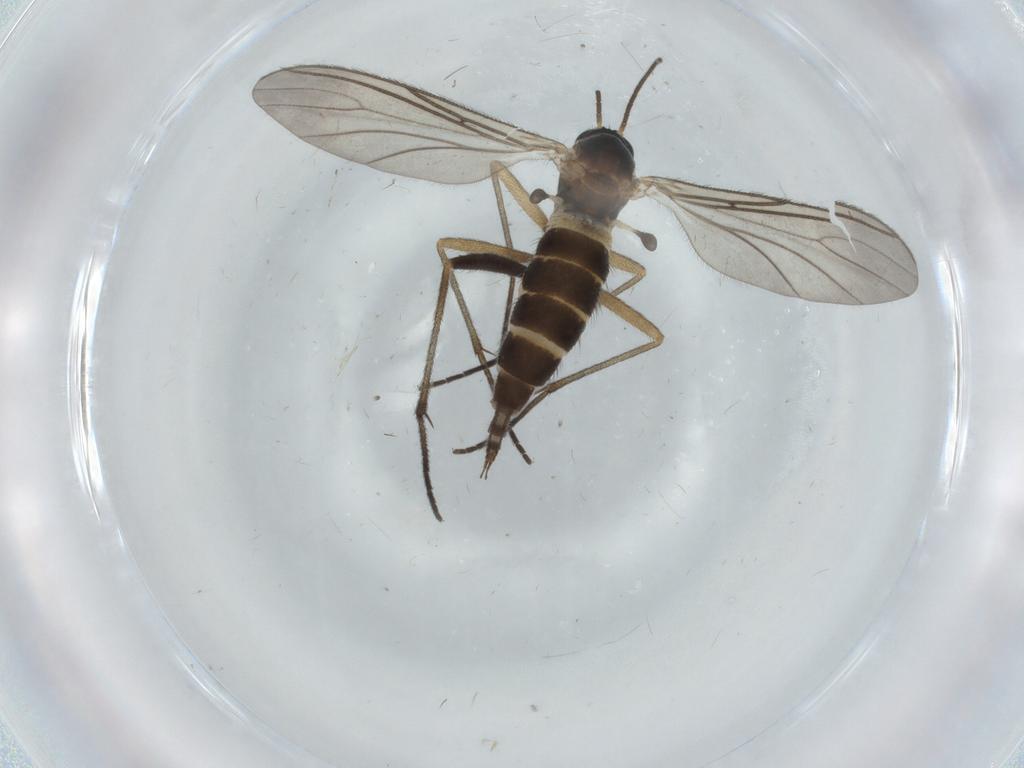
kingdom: Animalia
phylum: Arthropoda
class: Insecta
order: Diptera
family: Sciaridae
